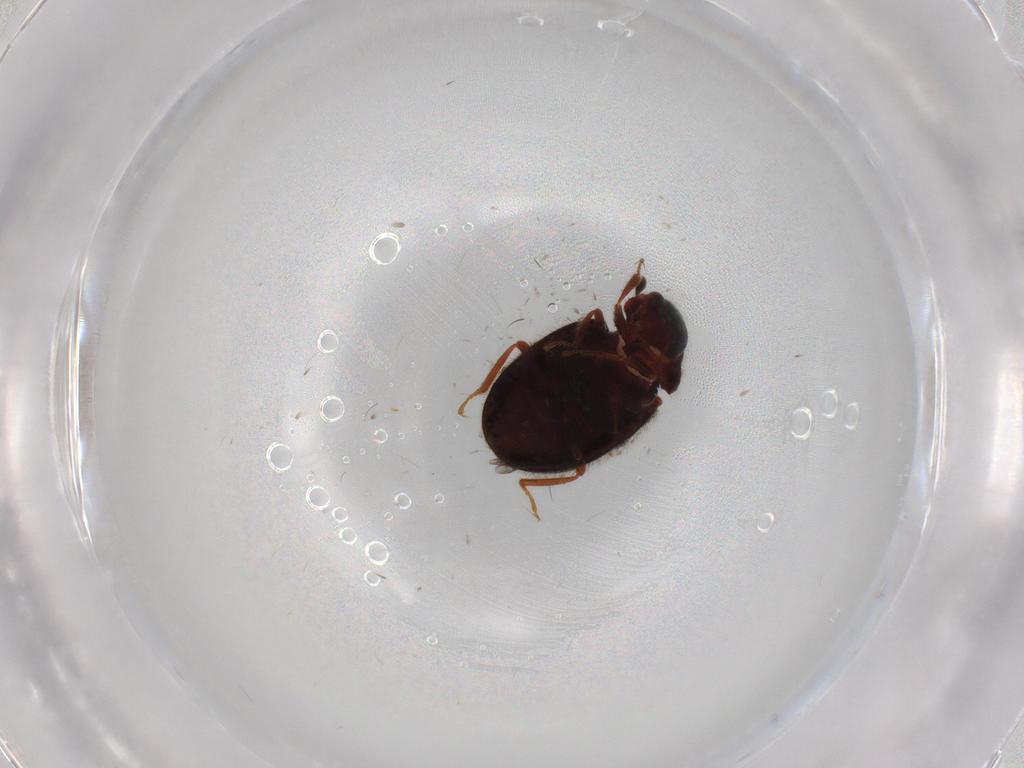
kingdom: Animalia
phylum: Arthropoda
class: Insecta
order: Coleoptera
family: Sphindidae
